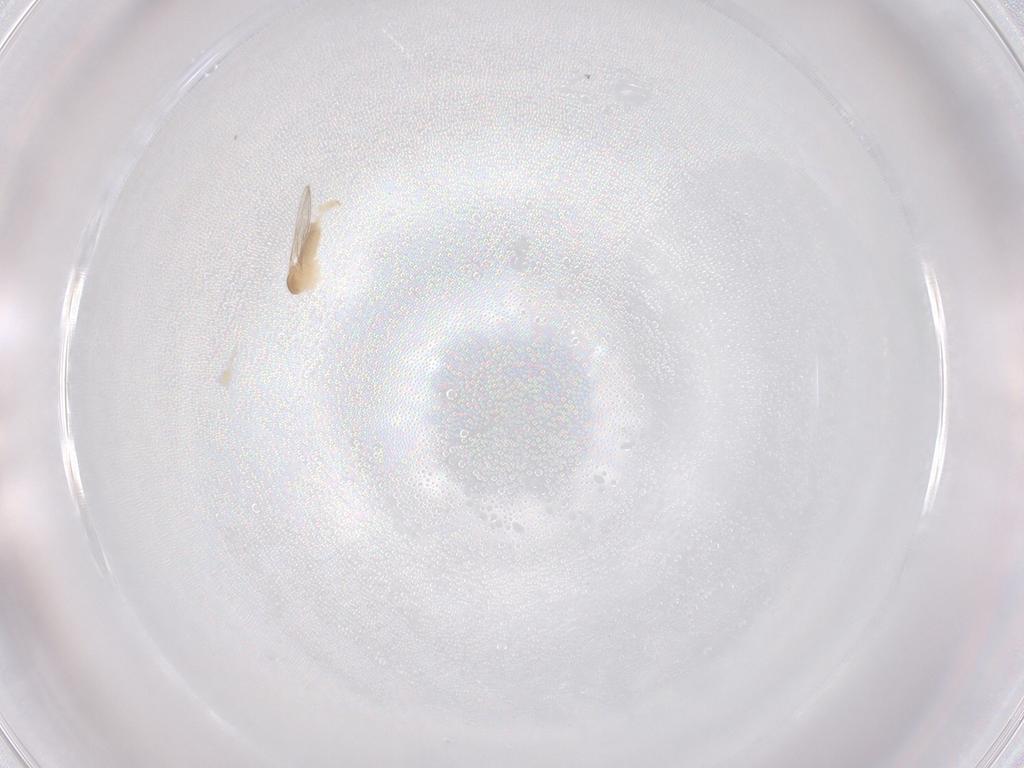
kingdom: Animalia
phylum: Arthropoda
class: Insecta
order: Diptera
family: Cecidomyiidae
